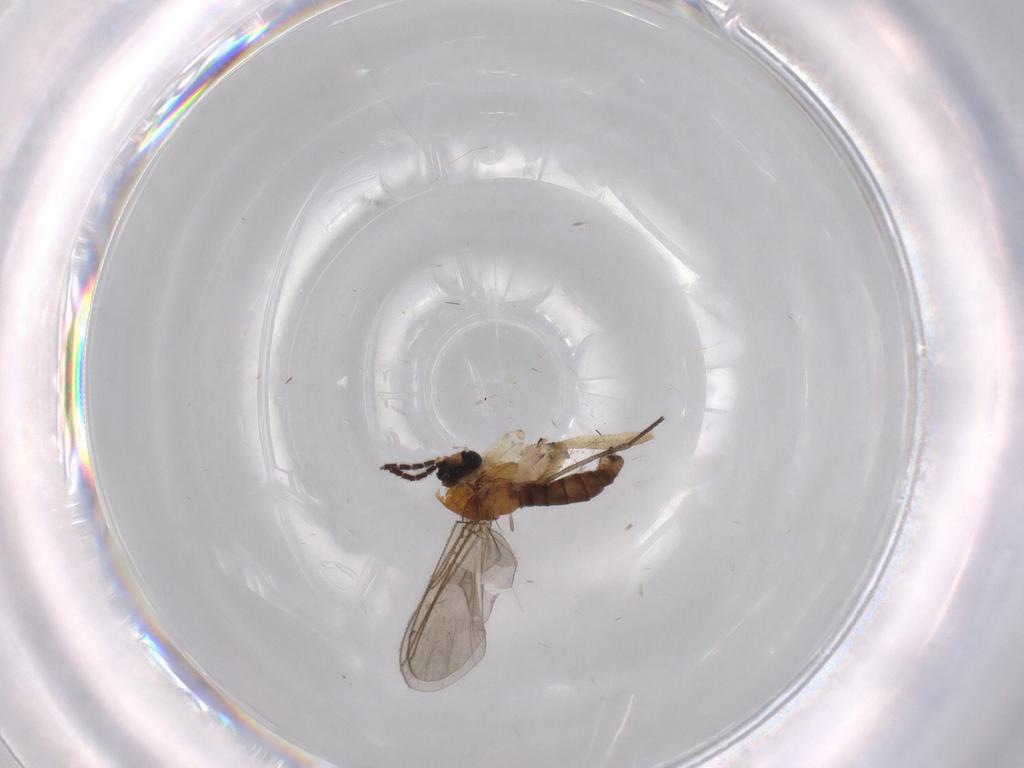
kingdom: Animalia
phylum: Arthropoda
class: Insecta
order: Diptera
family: Sciaridae
